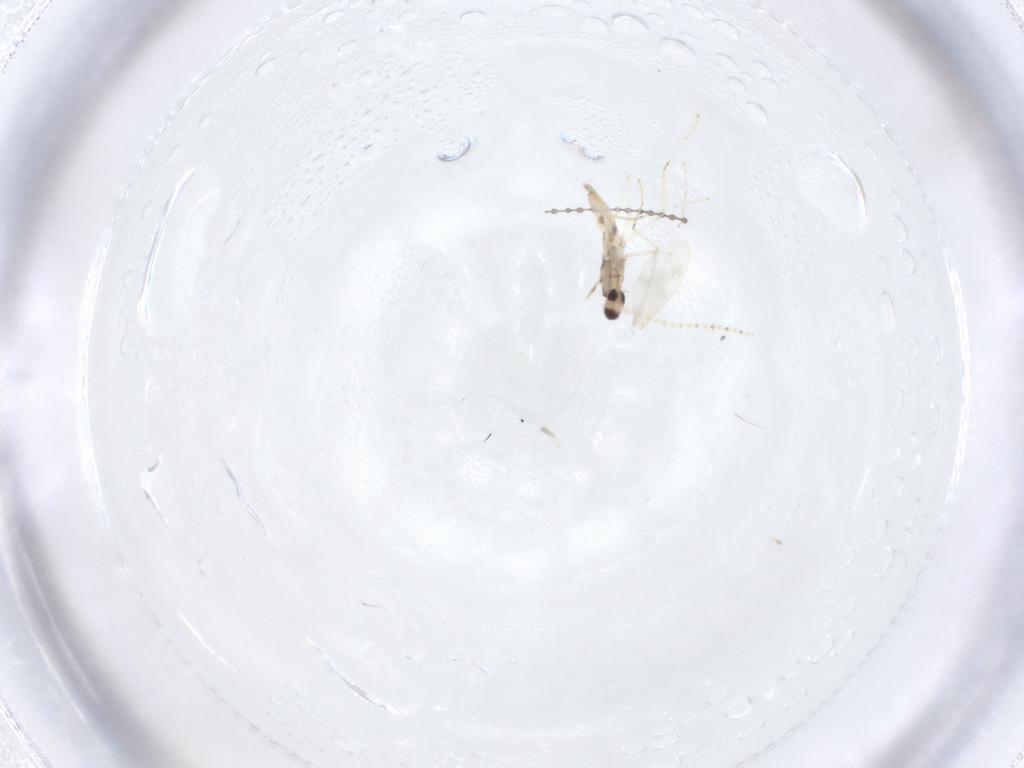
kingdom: Animalia
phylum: Arthropoda
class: Insecta
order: Diptera
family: Cecidomyiidae
